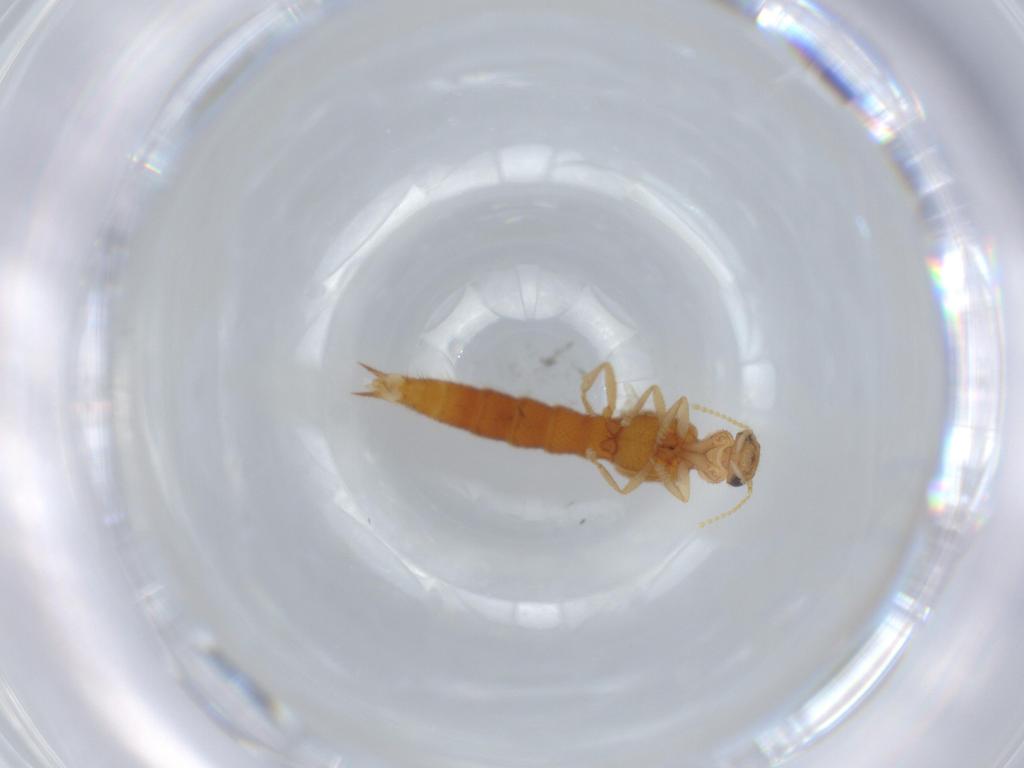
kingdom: Animalia
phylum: Arthropoda
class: Insecta
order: Coleoptera
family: Staphylinidae
